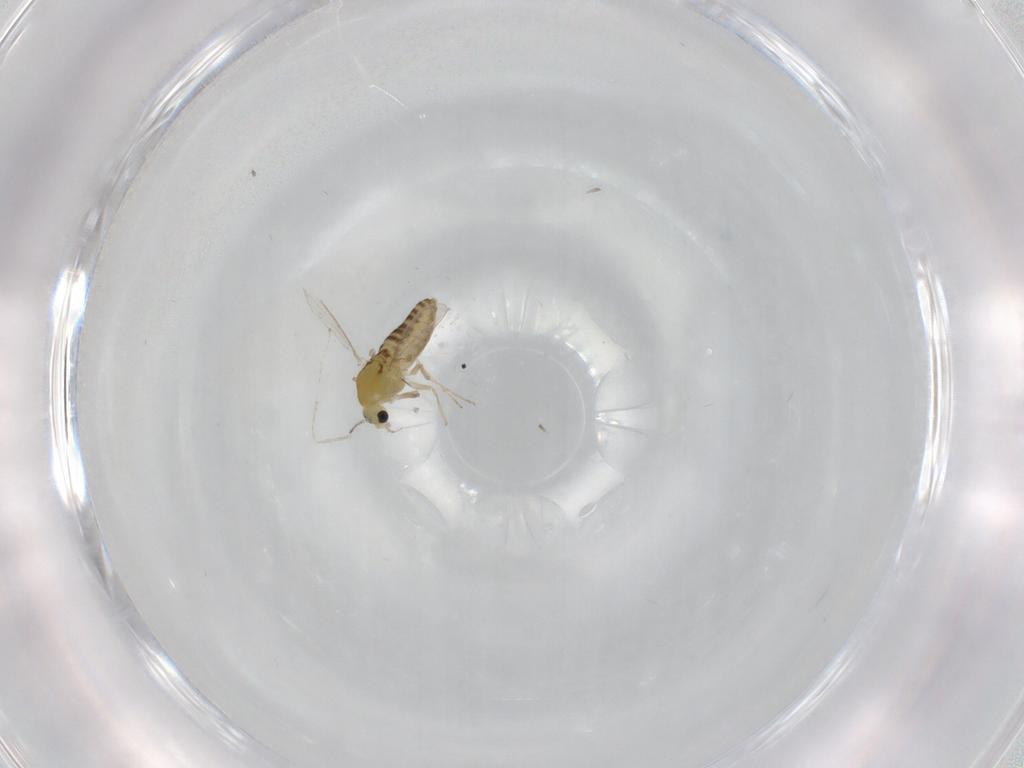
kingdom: Animalia
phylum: Arthropoda
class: Insecta
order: Diptera
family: Chironomidae
